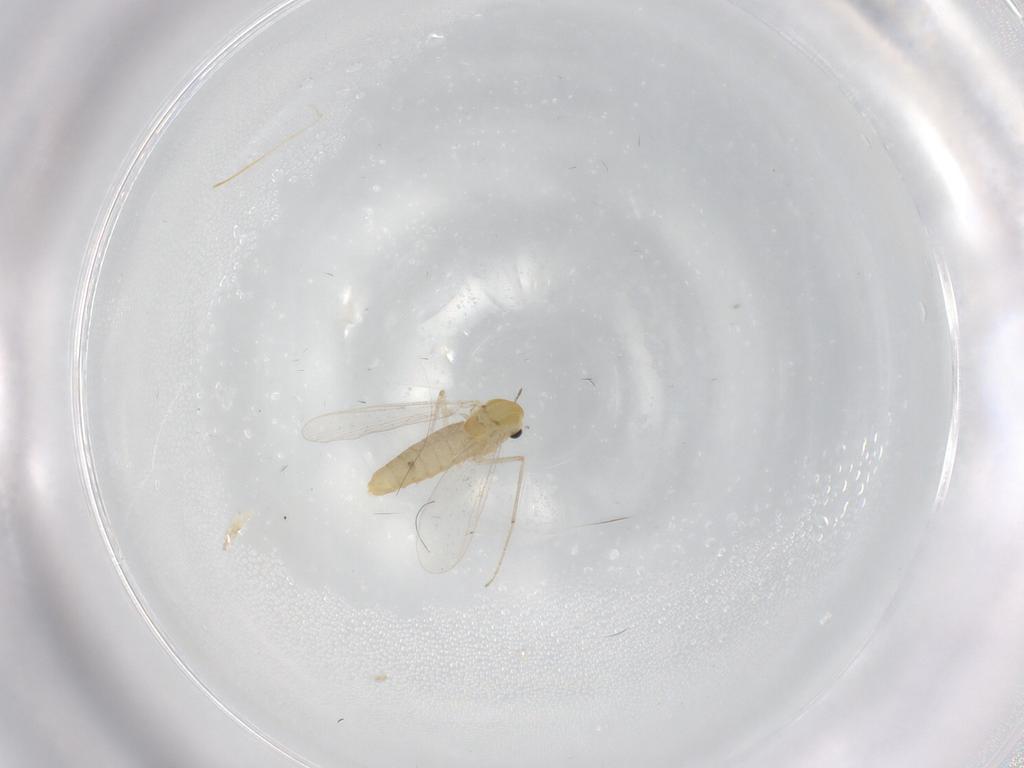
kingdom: Animalia
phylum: Arthropoda
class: Insecta
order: Diptera
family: Chironomidae
